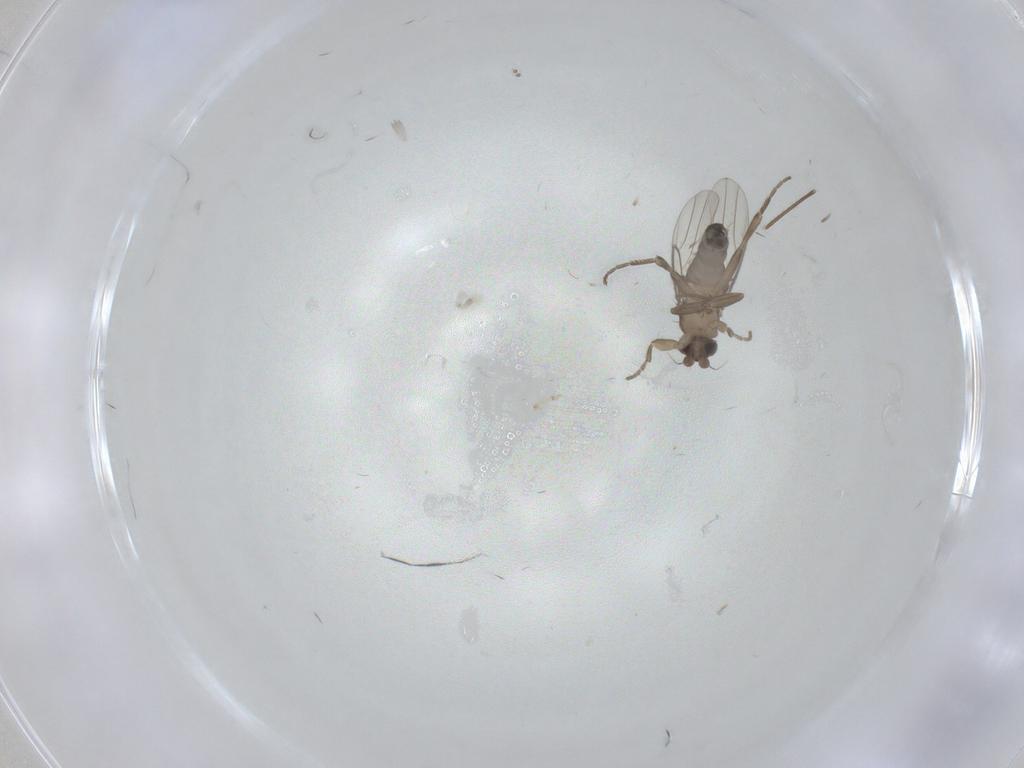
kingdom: Animalia
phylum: Arthropoda
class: Insecta
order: Diptera
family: Phoridae
